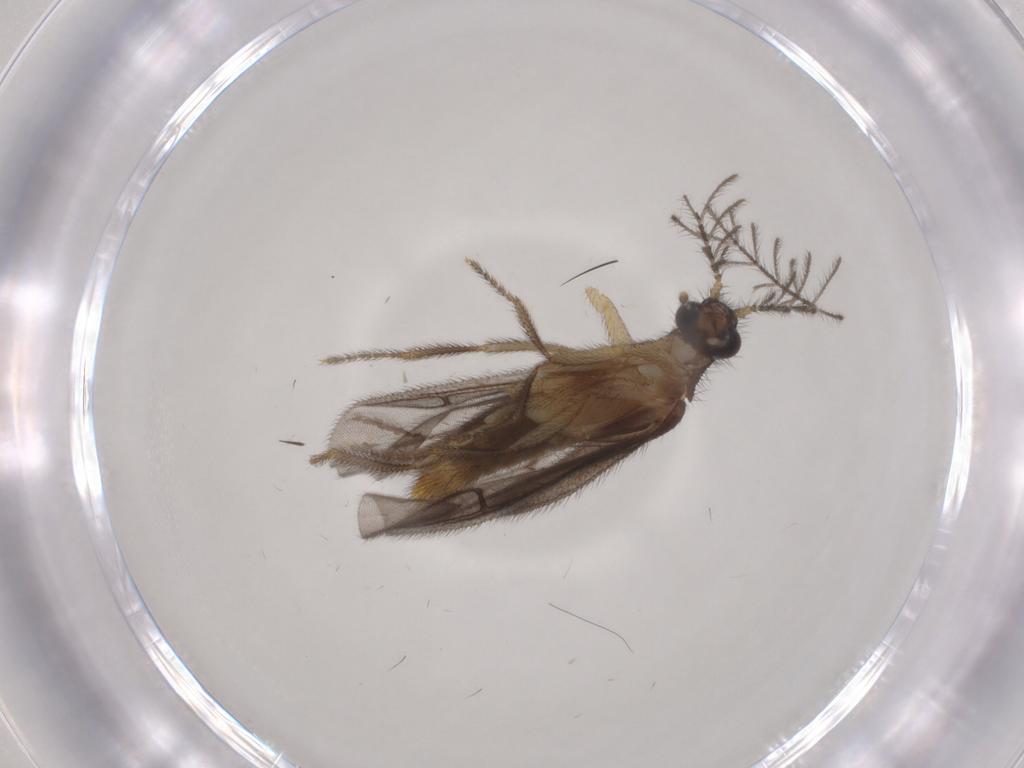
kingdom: Animalia
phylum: Arthropoda
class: Insecta
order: Coleoptera
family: Phengodidae
